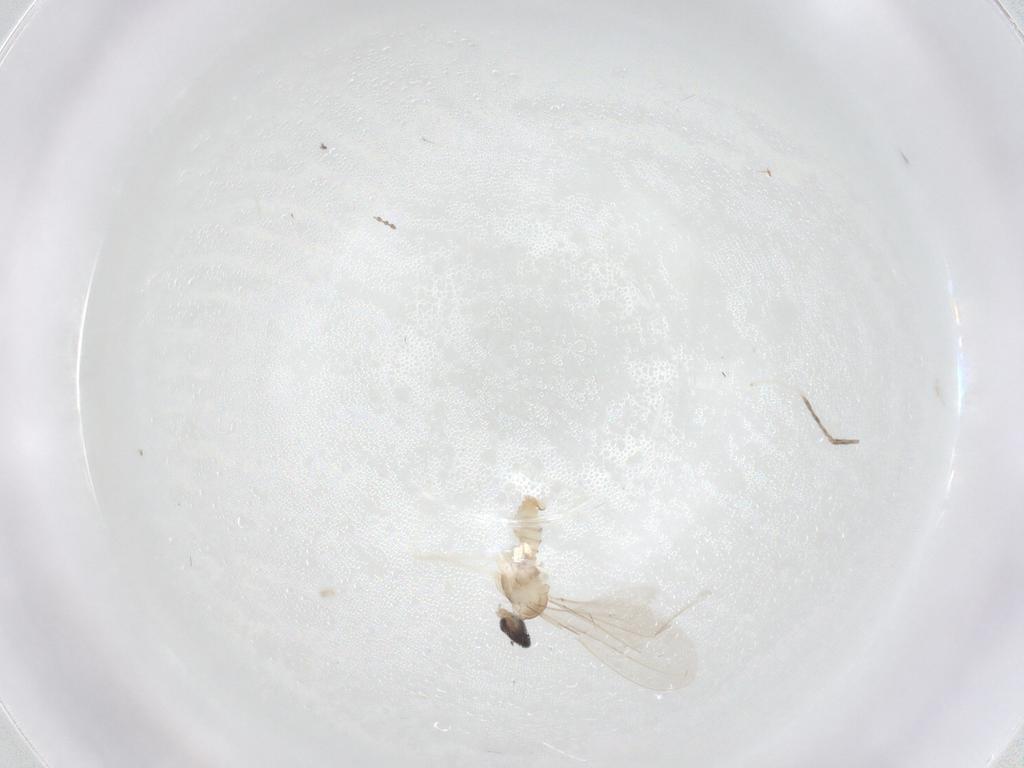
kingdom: Animalia
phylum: Arthropoda
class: Insecta
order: Diptera
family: Cecidomyiidae
